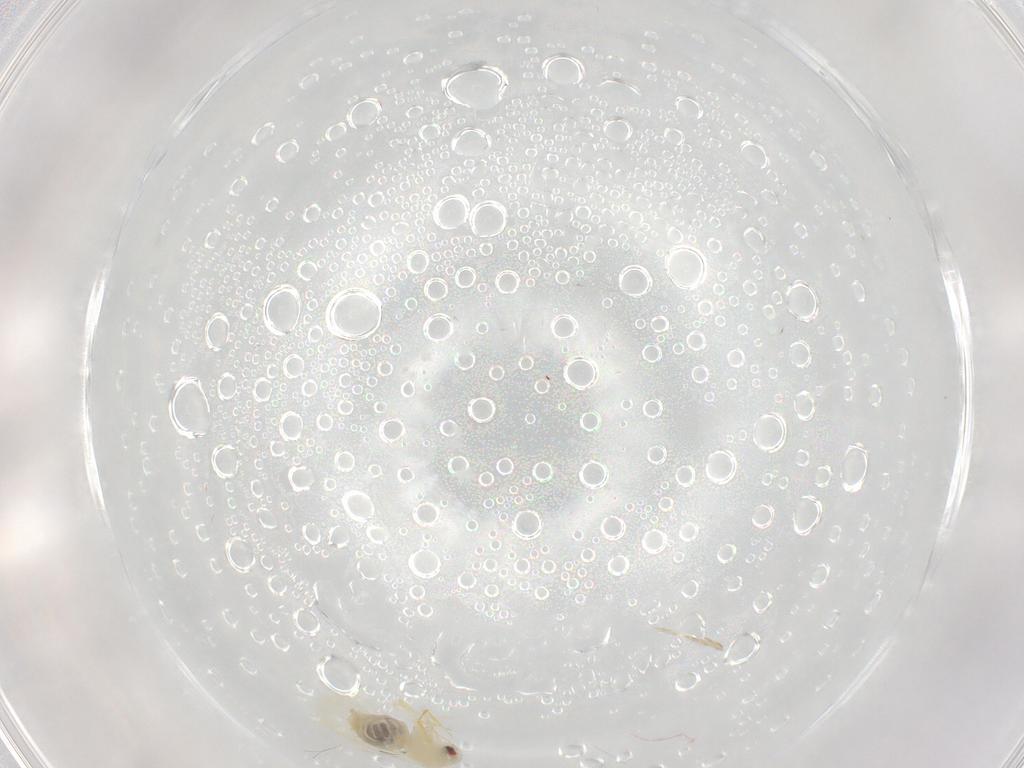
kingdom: Animalia
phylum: Arthropoda
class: Insecta
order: Hemiptera
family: Aleyrodidae
